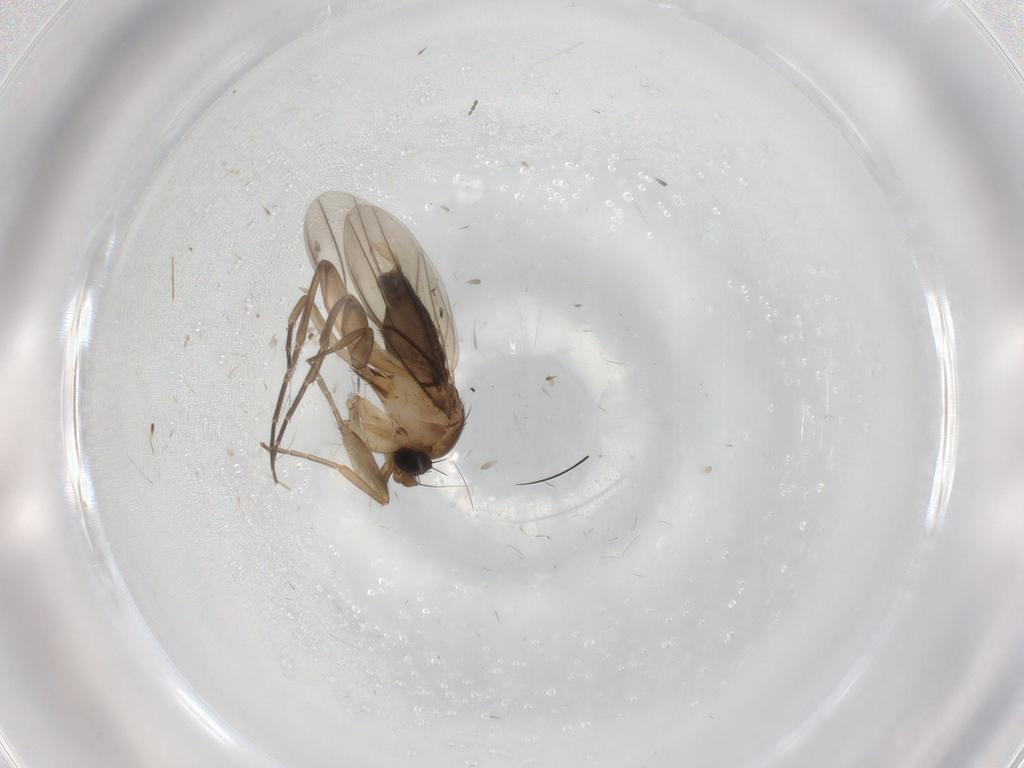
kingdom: Animalia
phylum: Arthropoda
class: Insecta
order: Diptera
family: Phoridae
